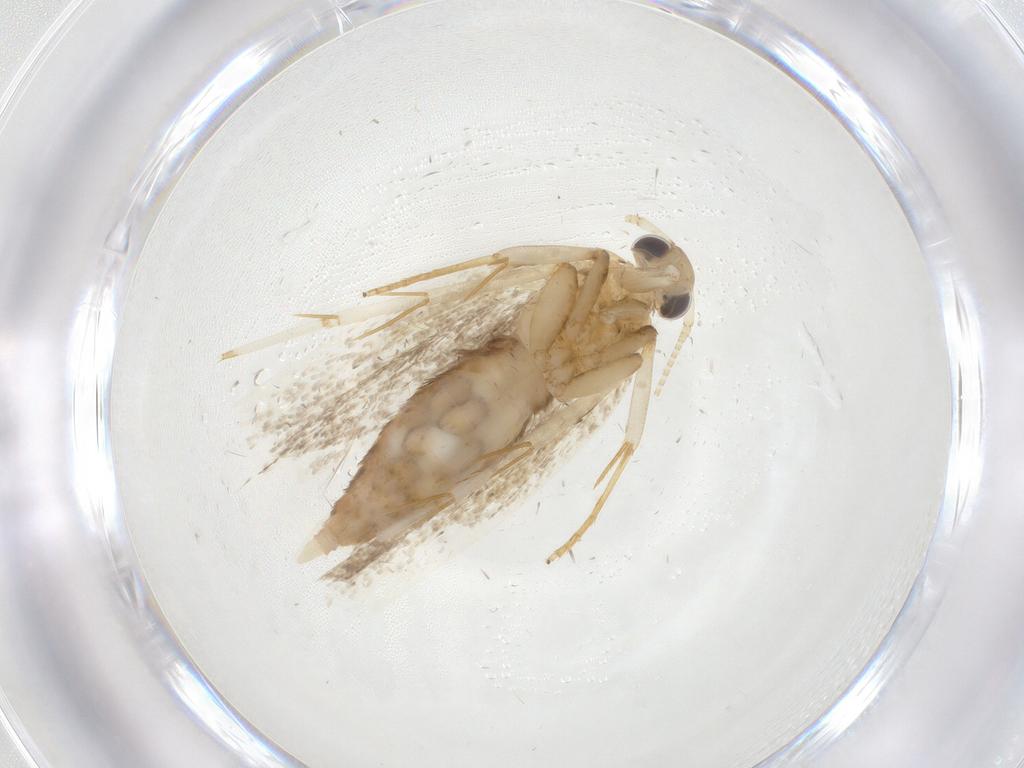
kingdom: Animalia
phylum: Arthropoda
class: Insecta
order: Lepidoptera
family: Lecithoceridae
